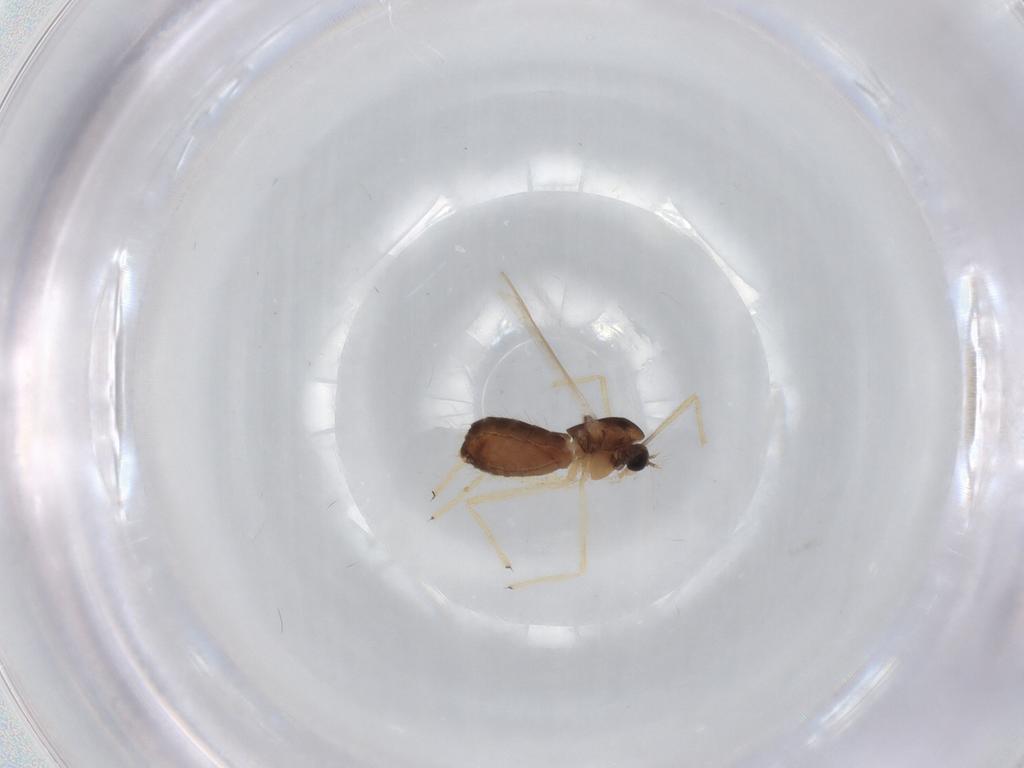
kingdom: Animalia
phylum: Arthropoda
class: Insecta
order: Diptera
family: Chironomidae
